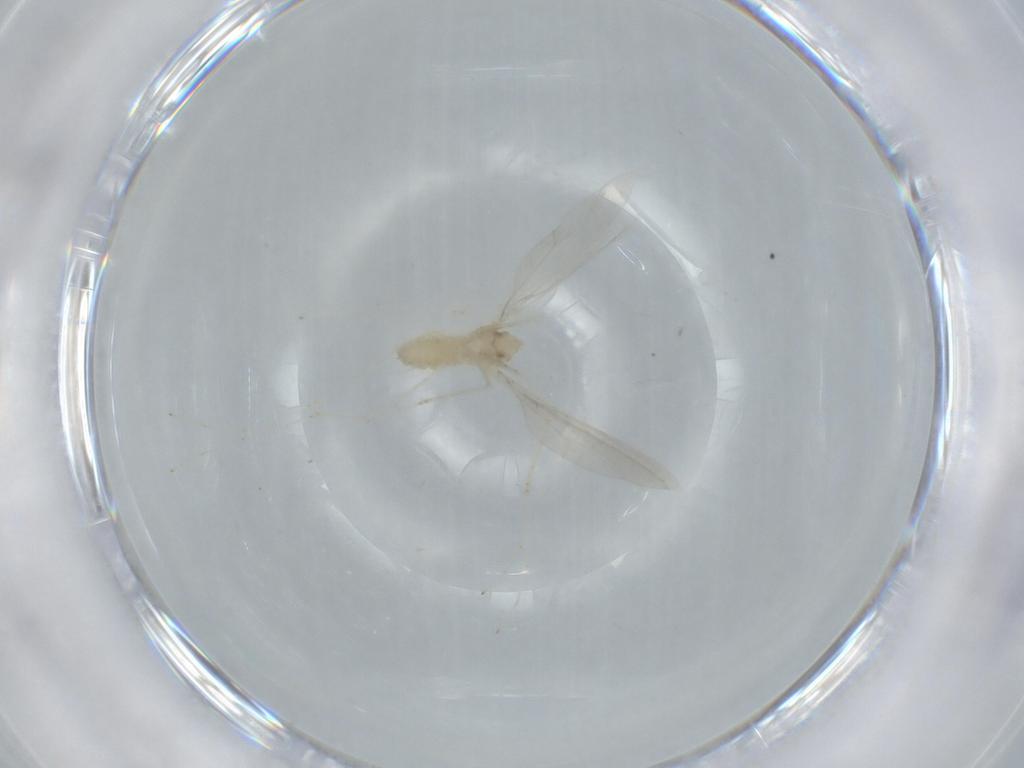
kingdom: Animalia
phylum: Arthropoda
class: Insecta
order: Diptera
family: Cecidomyiidae
